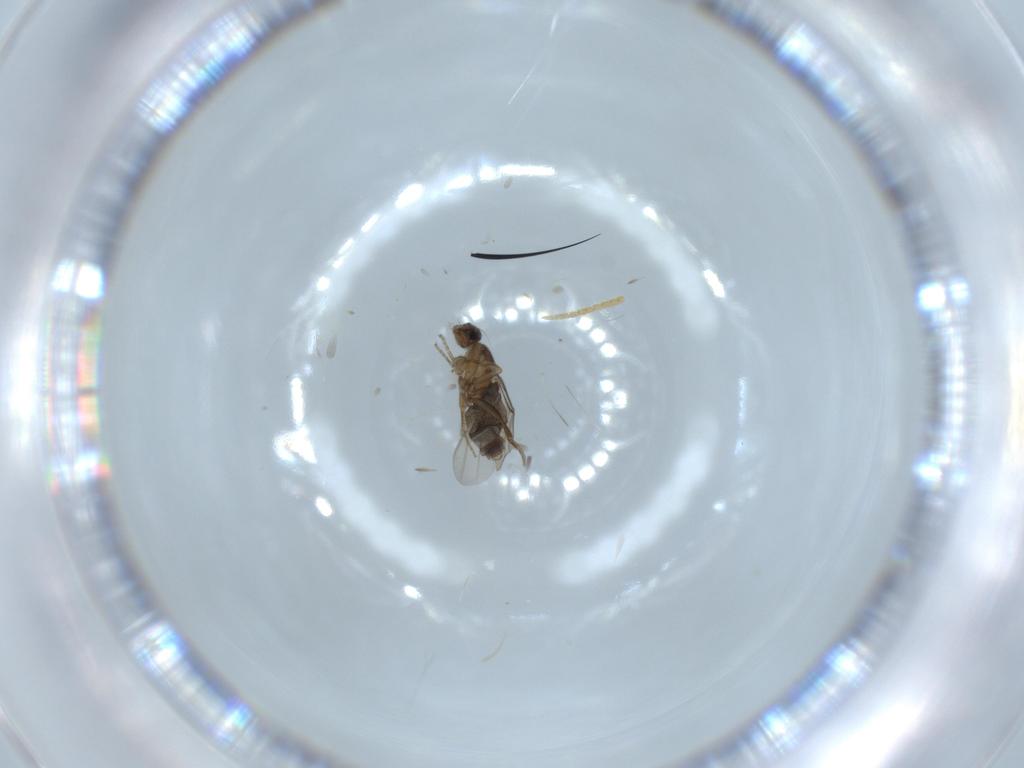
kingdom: Animalia
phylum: Arthropoda
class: Insecta
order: Diptera
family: Phoridae
